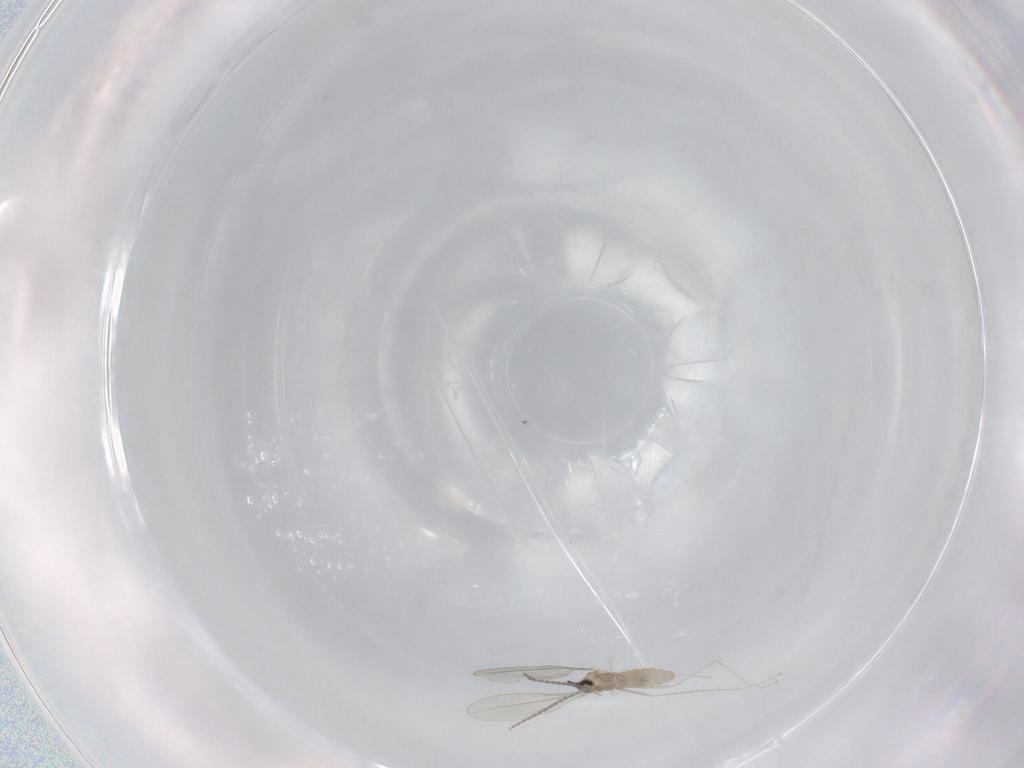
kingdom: Animalia
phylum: Arthropoda
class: Insecta
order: Diptera
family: Cecidomyiidae
